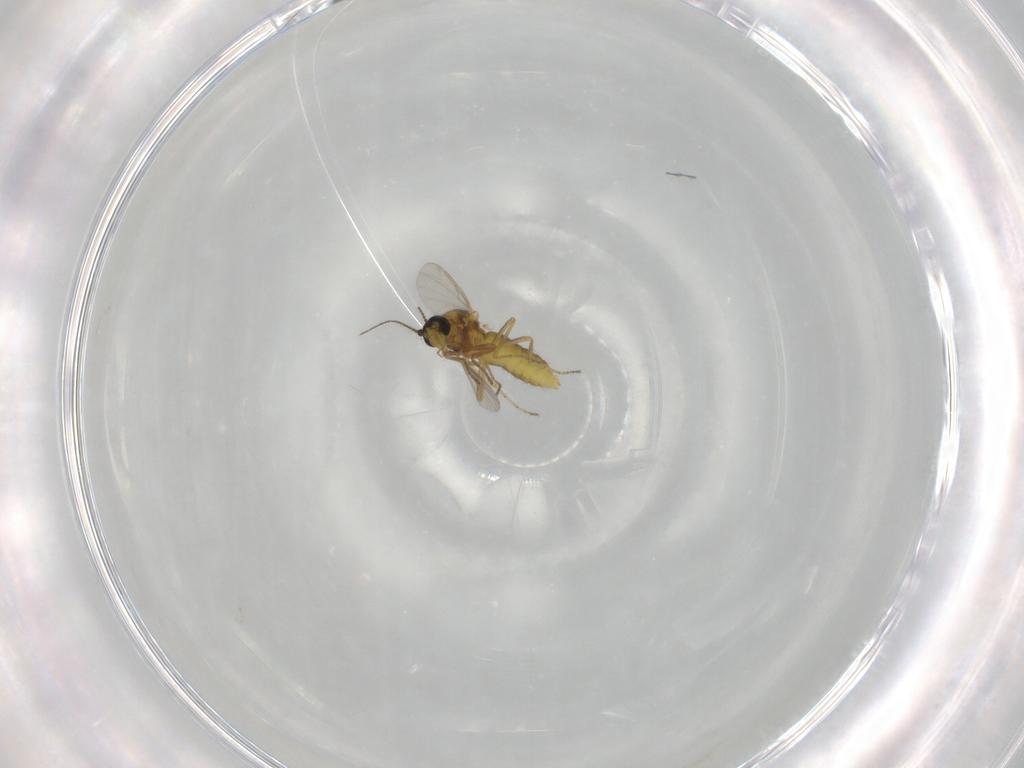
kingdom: Animalia
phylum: Arthropoda
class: Insecta
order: Diptera
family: Ceratopogonidae
